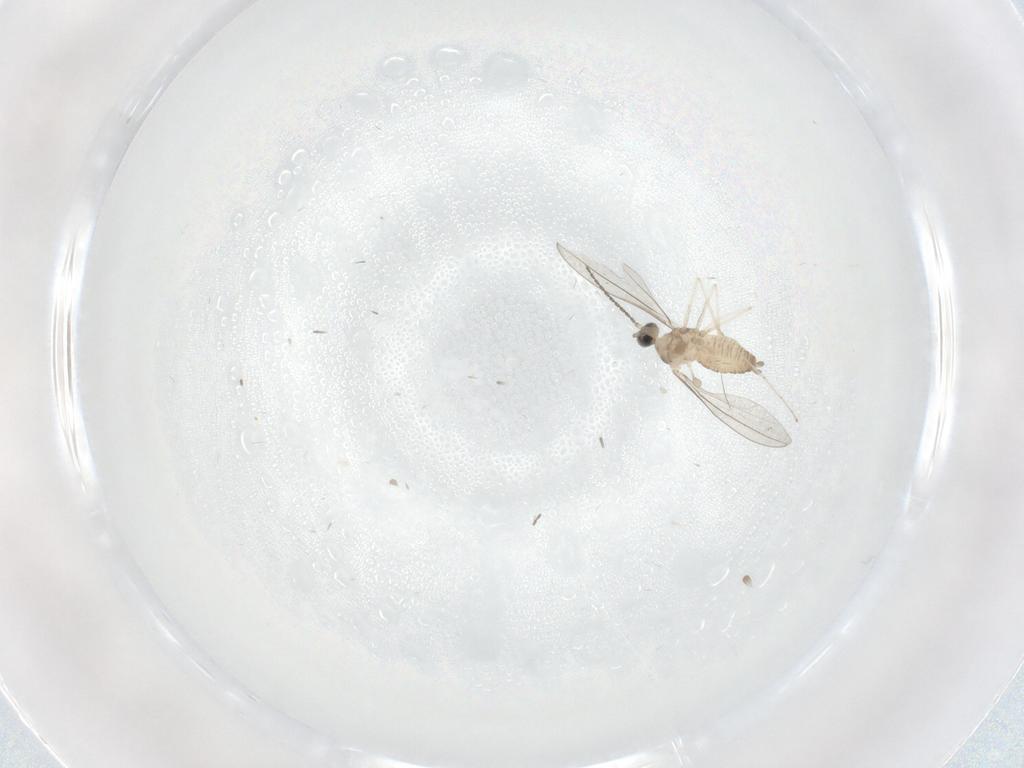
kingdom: Animalia
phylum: Arthropoda
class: Insecta
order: Diptera
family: Cecidomyiidae
